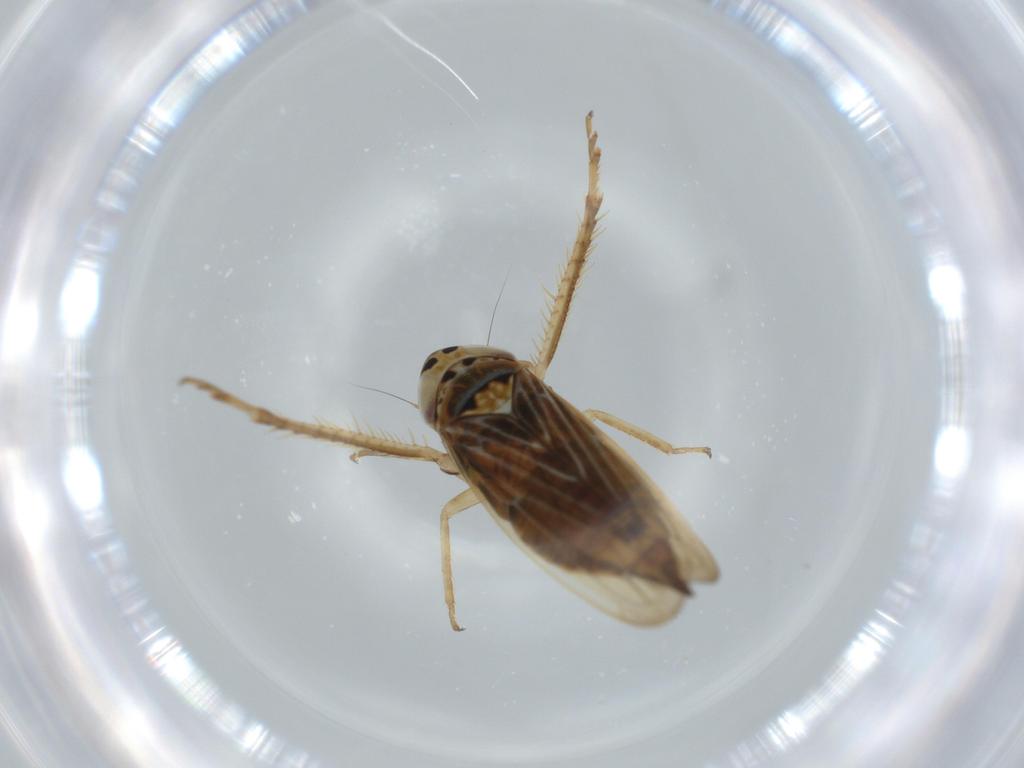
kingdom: Animalia
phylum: Arthropoda
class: Insecta
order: Hemiptera
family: Cicadellidae
